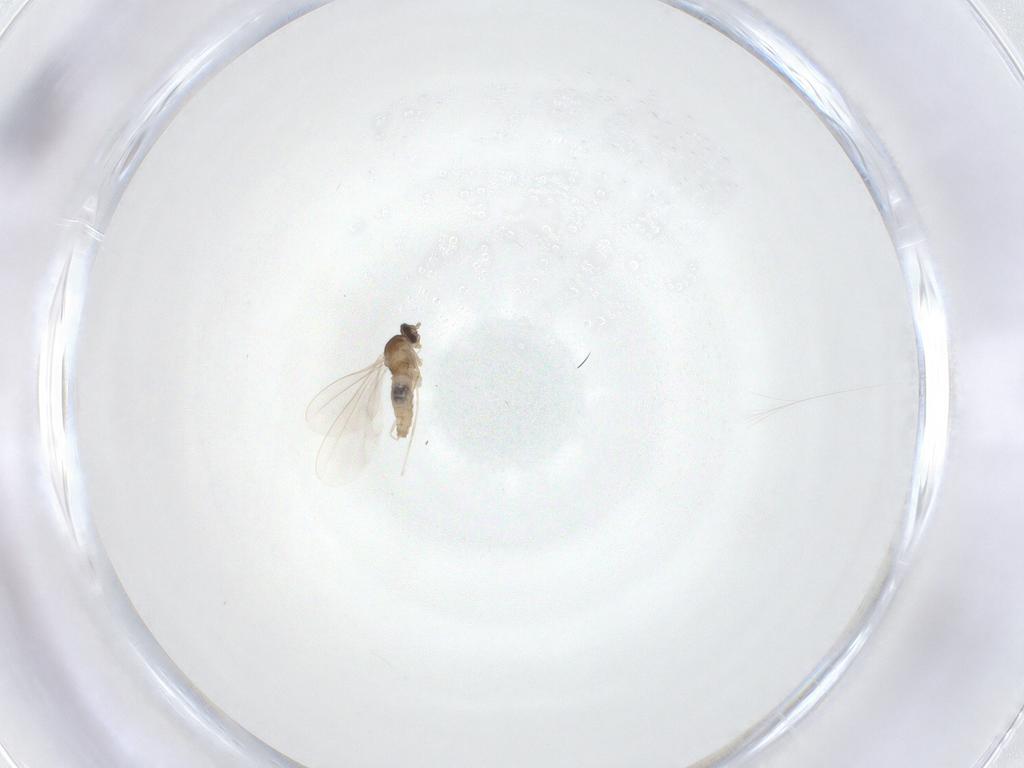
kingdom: Animalia
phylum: Arthropoda
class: Insecta
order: Diptera
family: Cecidomyiidae
